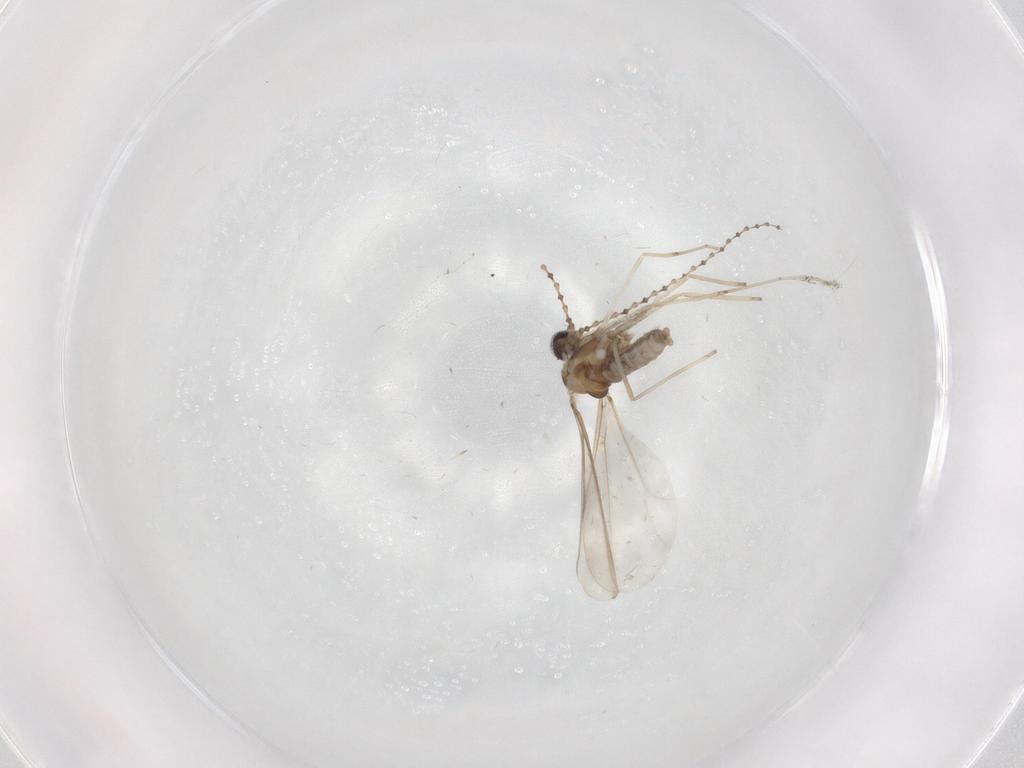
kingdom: Animalia
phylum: Arthropoda
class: Insecta
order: Diptera
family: Cecidomyiidae
